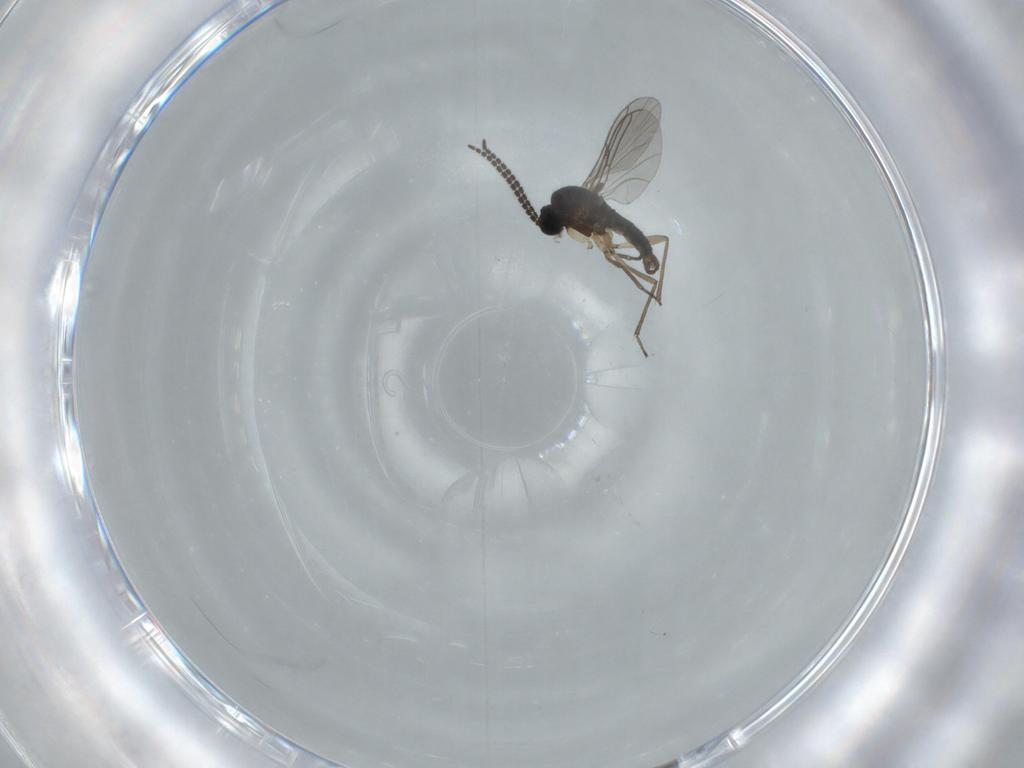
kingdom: Animalia
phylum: Arthropoda
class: Insecta
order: Diptera
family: Sciaridae
